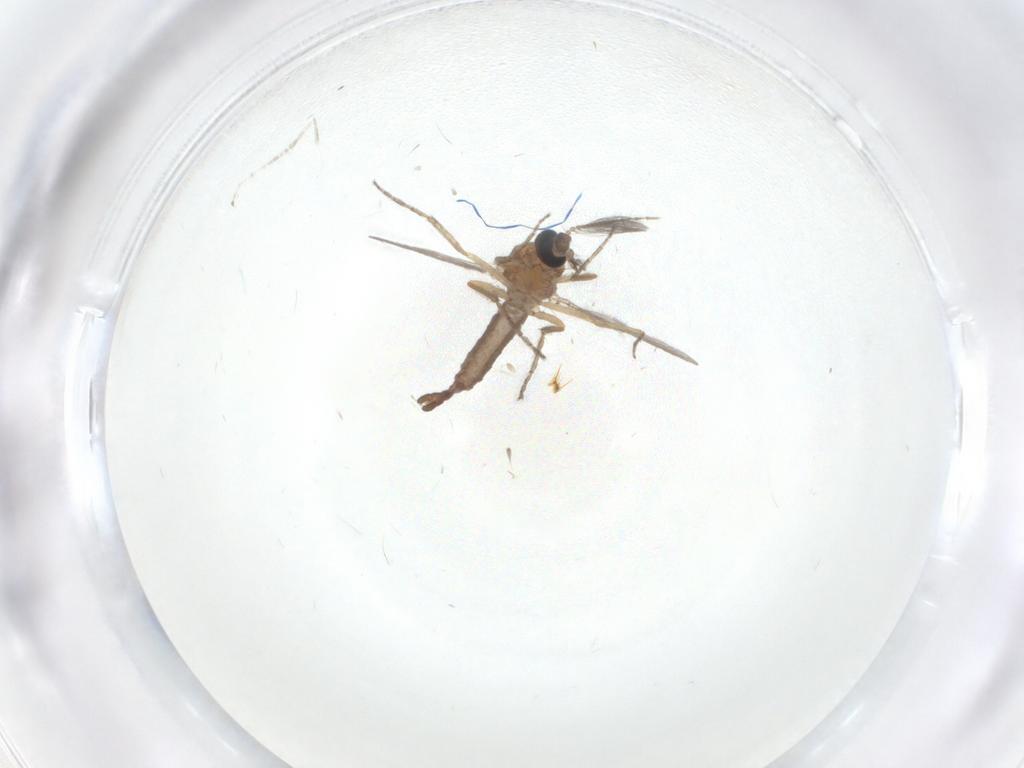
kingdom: Animalia
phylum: Arthropoda
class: Insecta
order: Diptera
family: Ceratopogonidae
